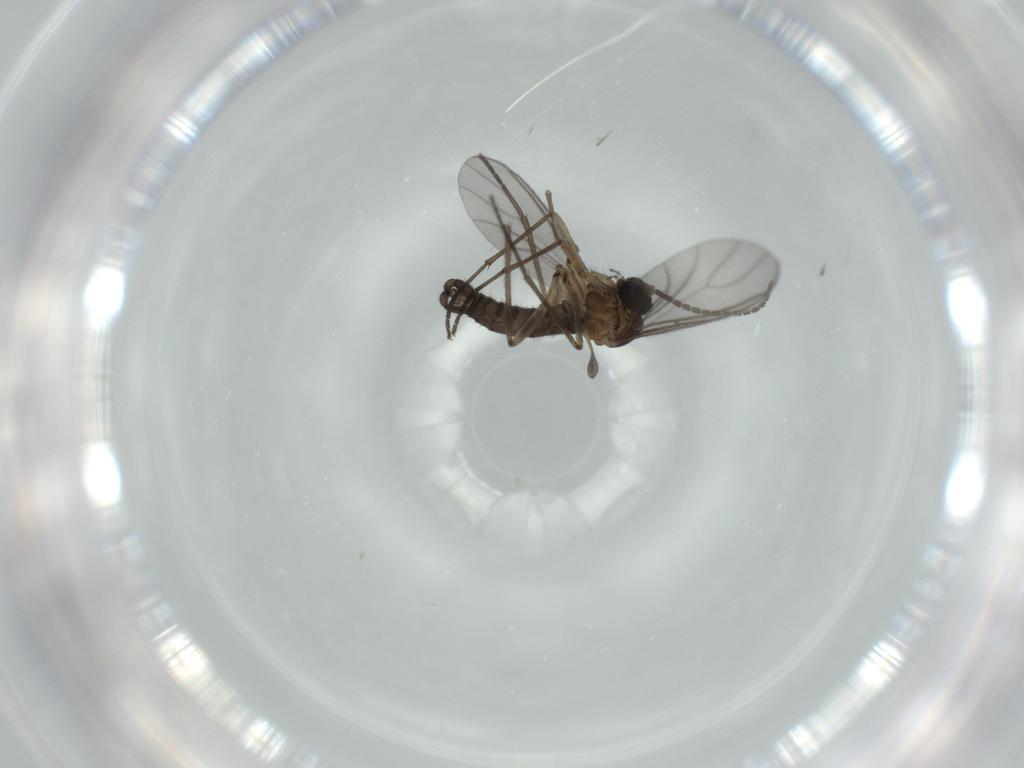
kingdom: Animalia
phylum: Arthropoda
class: Insecta
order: Diptera
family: Sciaridae
